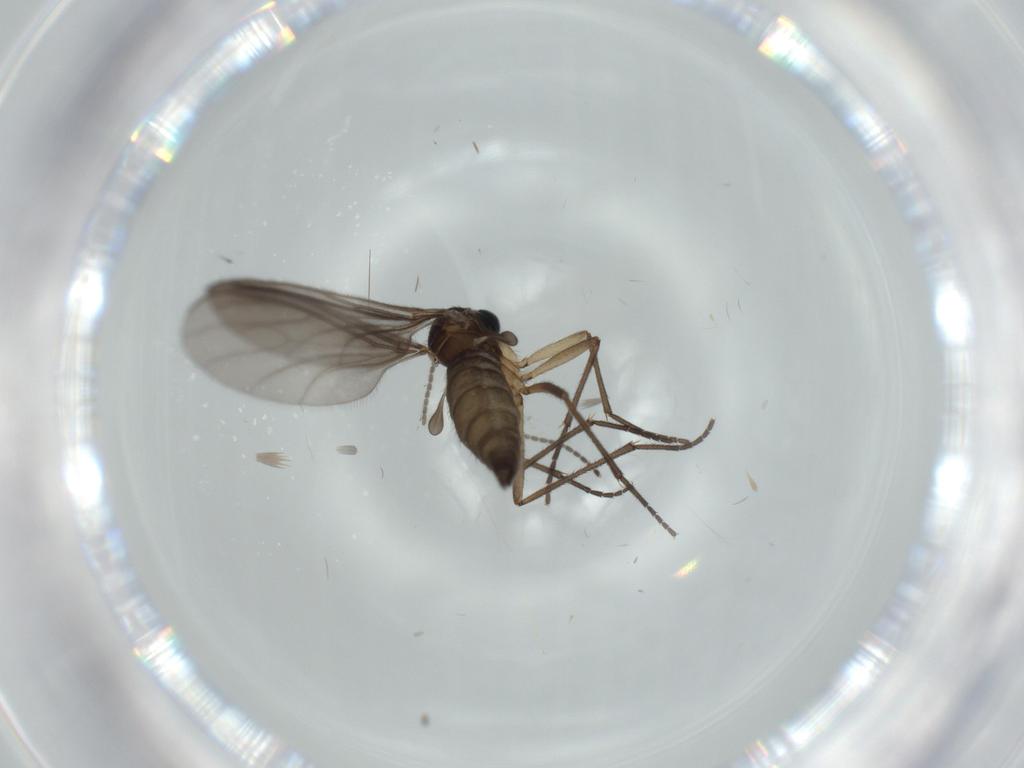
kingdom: Animalia
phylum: Arthropoda
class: Insecta
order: Diptera
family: Sciaridae
